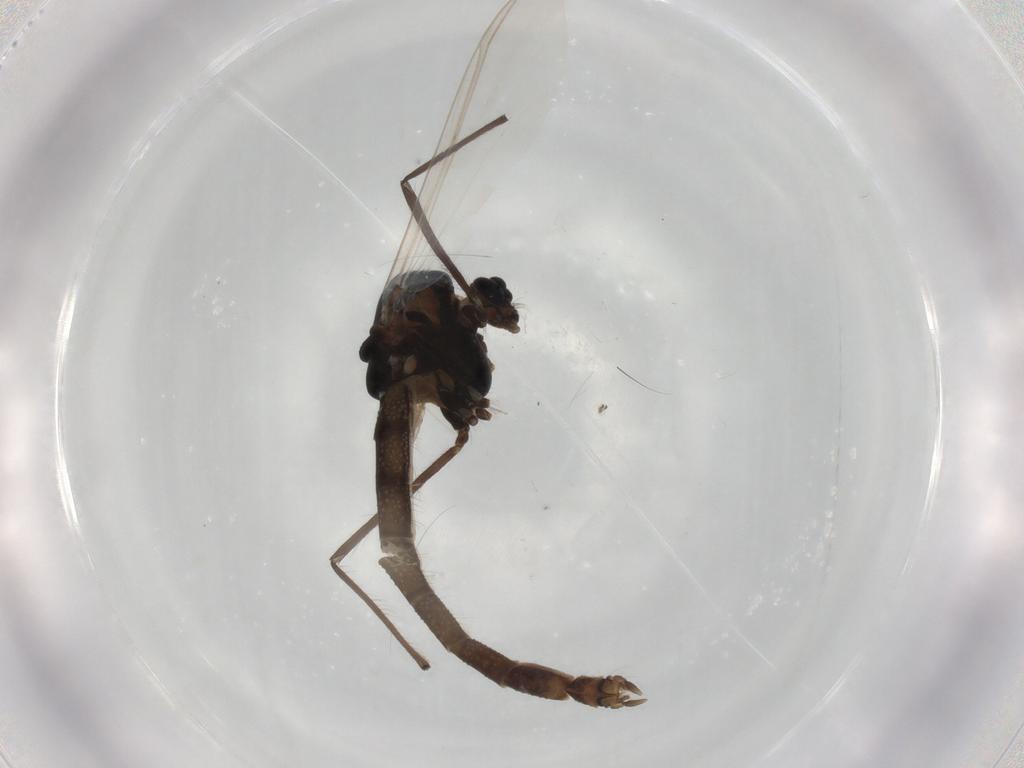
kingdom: Animalia
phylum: Arthropoda
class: Insecta
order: Diptera
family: Chironomidae
